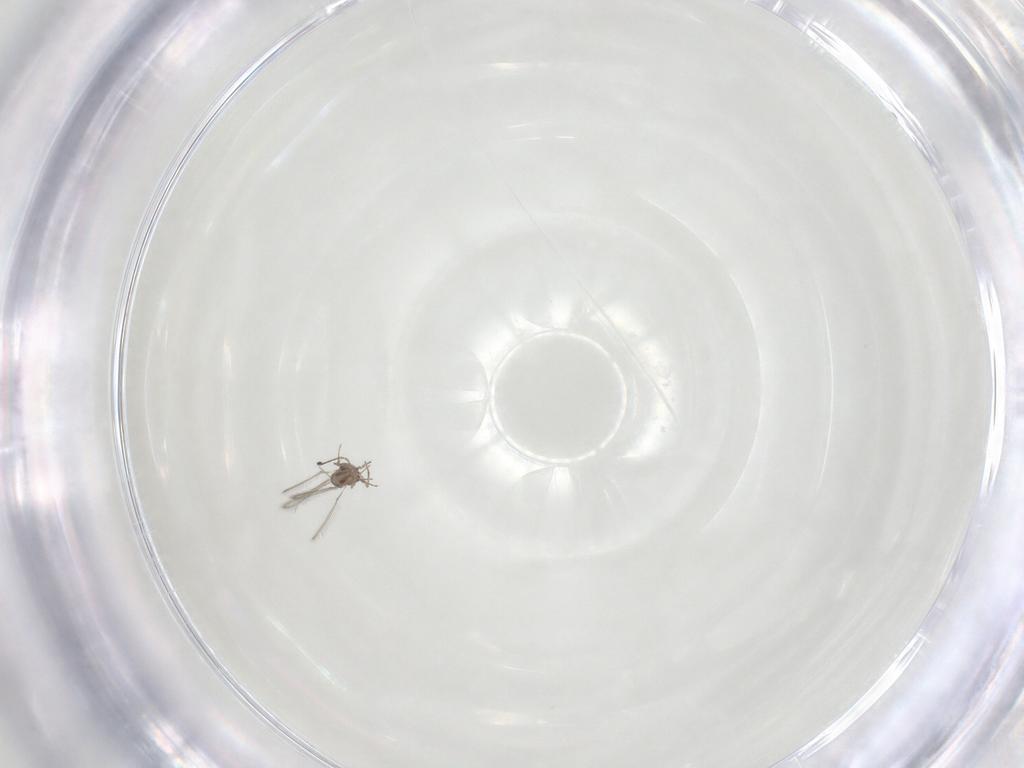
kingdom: Animalia
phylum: Arthropoda
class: Insecta
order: Hymenoptera
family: Mymaridae
